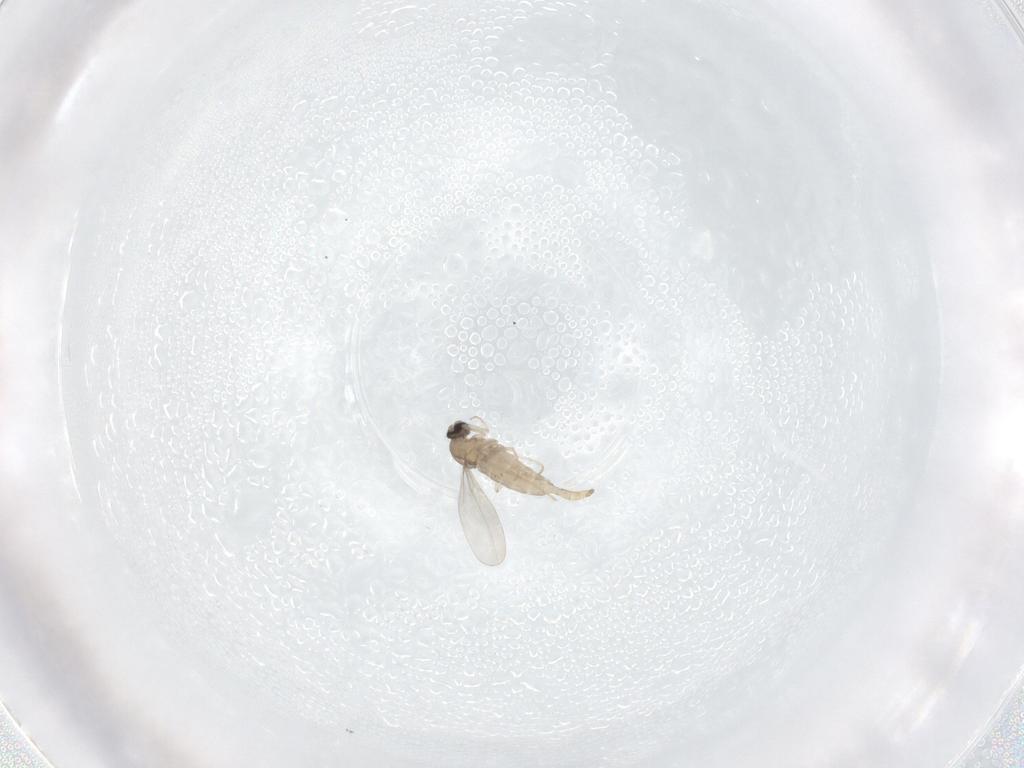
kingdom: Animalia
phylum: Arthropoda
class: Insecta
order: Diptera
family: Cecidomyiidae
